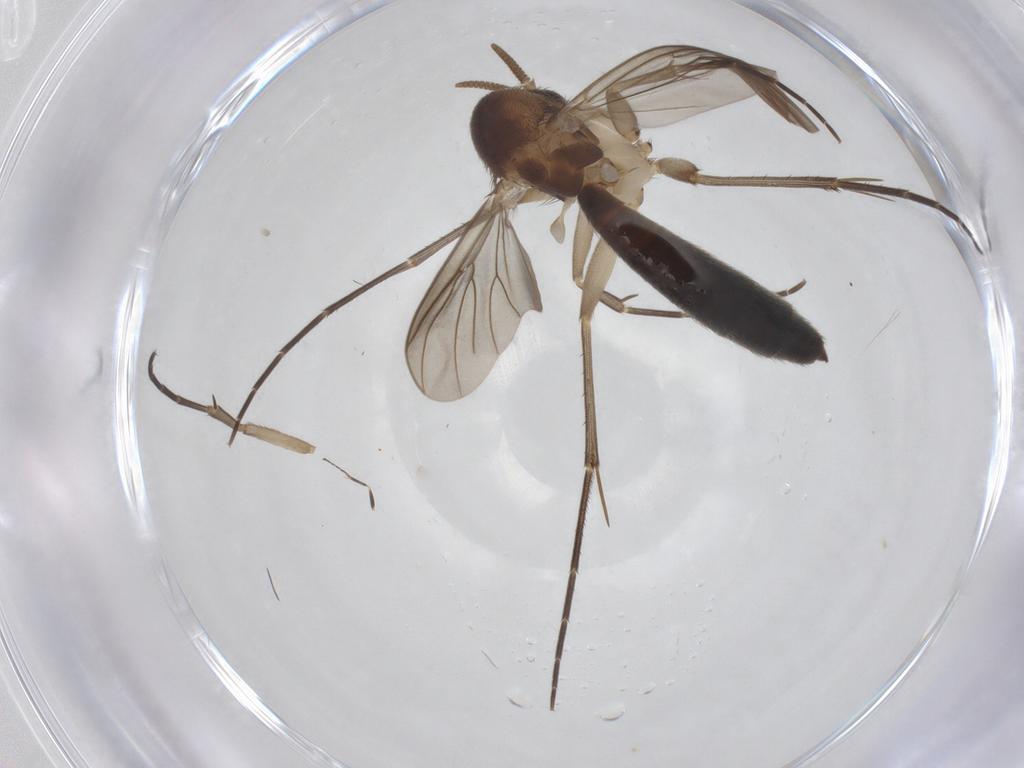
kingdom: Animalia
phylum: Arthropoda
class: Insecta
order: Diptera
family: Mycetophilidae
